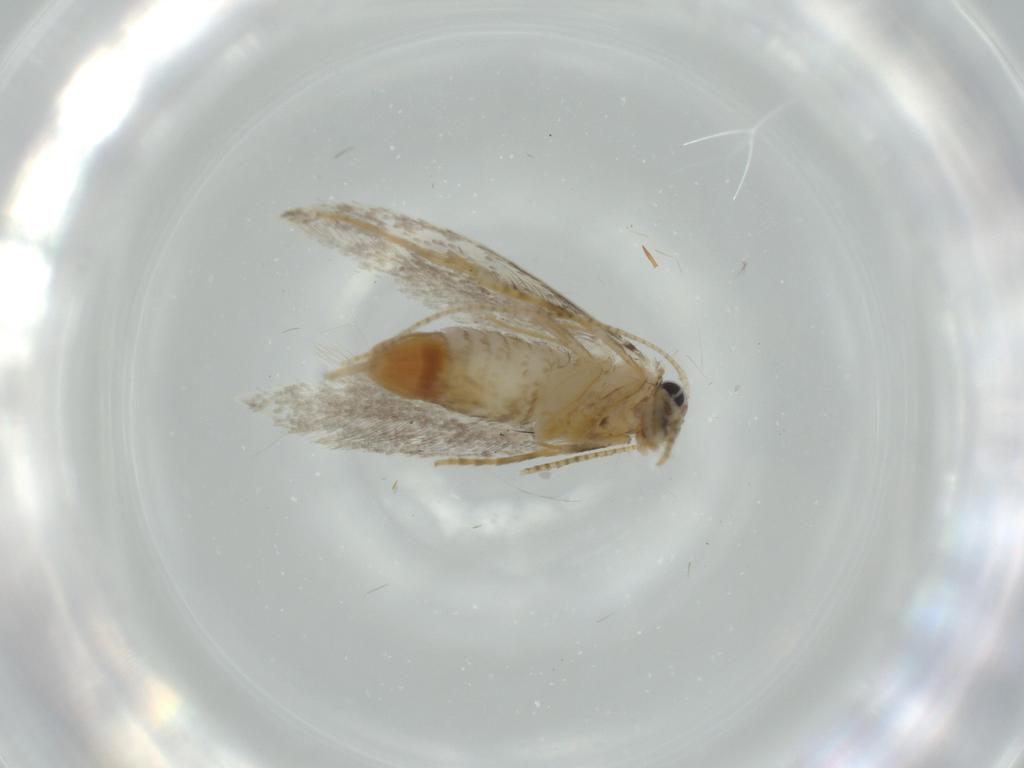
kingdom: Animalia
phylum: Arthropoda
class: Insecta
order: Lepidoptera
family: Tineidae
